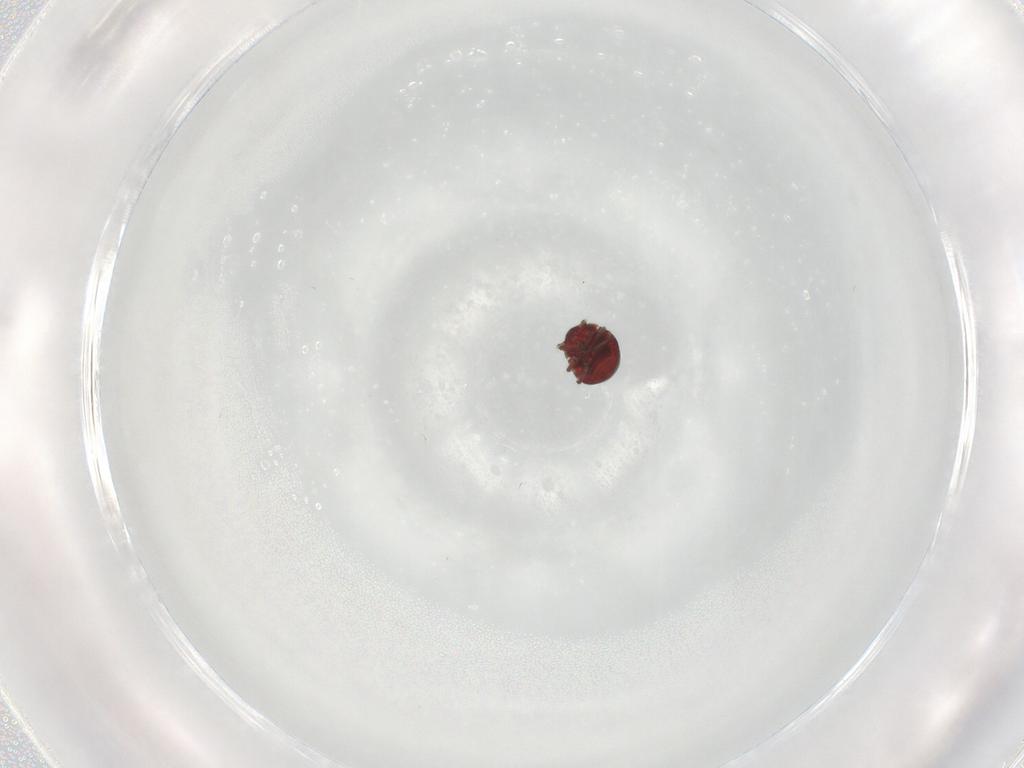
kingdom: Animalia
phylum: Arthropoda
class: Insecta
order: Hemiptera
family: Schizopteridae
